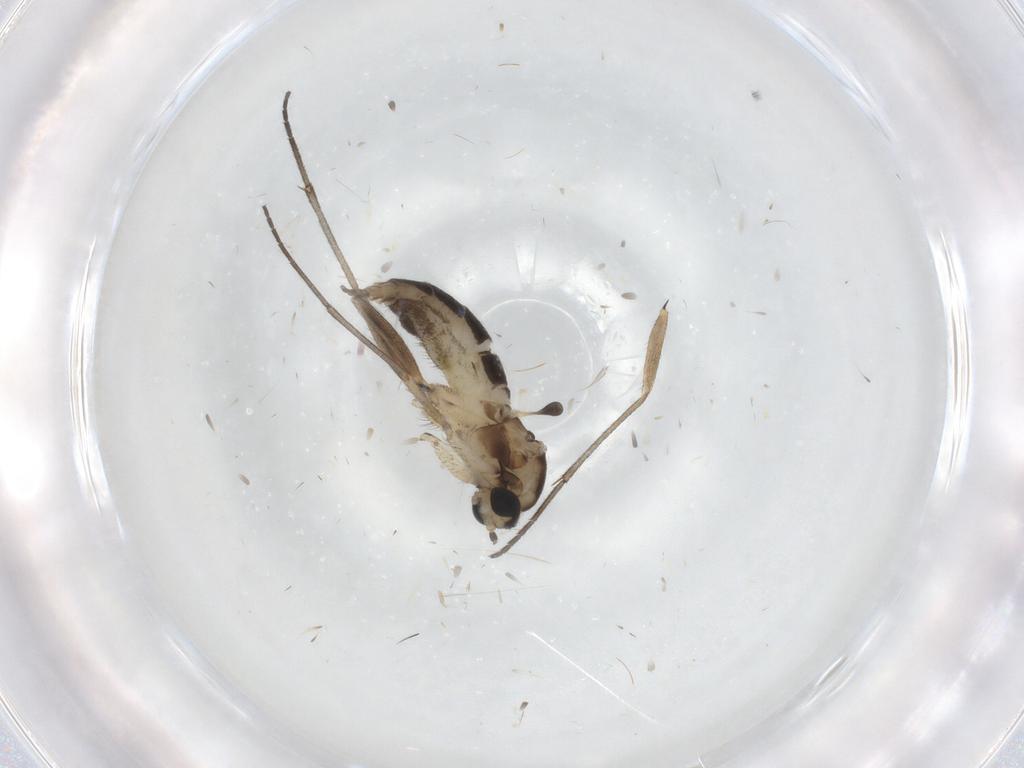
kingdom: Animalia
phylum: Arthropoda
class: Insecta
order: Diptera
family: Sciaridae
